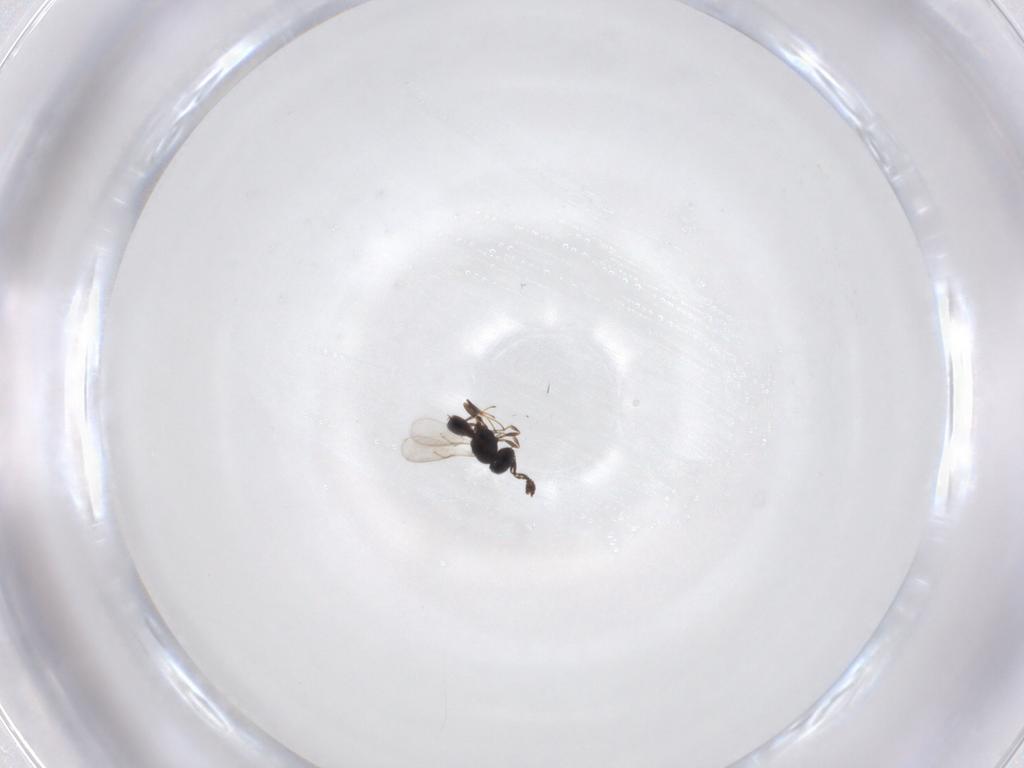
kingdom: Animalia
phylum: Arthropoda
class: Insecta
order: Hymenoptera
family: Scelionidae
